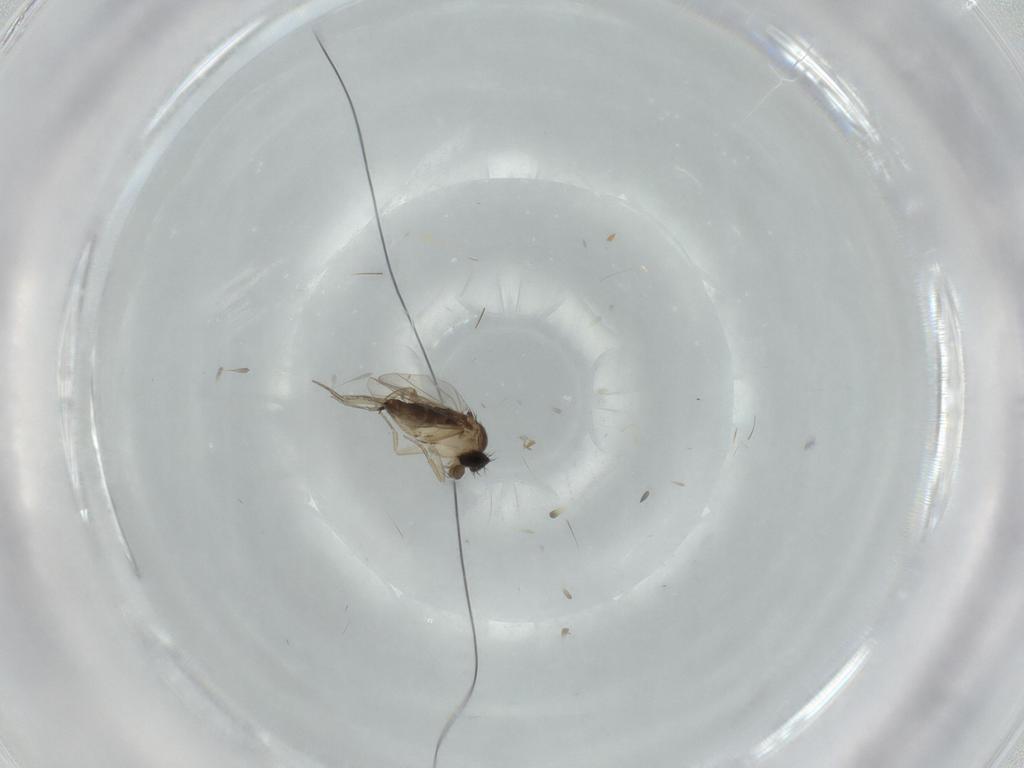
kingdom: Animalia
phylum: Arthropoda
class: Insecta
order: Diptera
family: Phoridae
